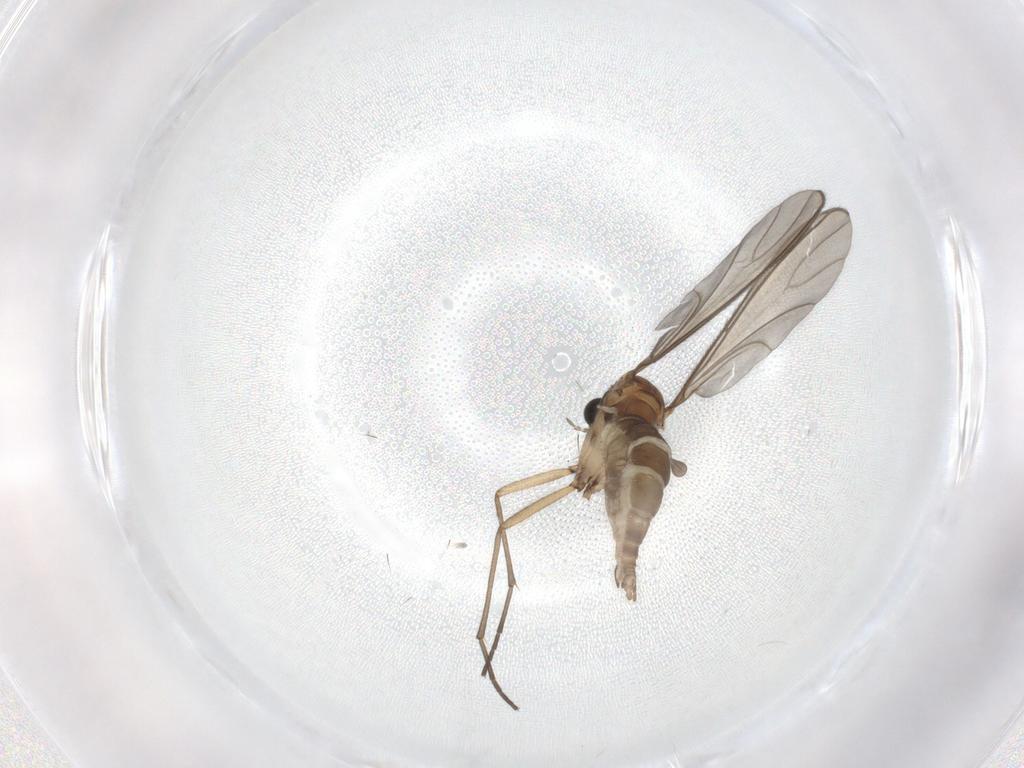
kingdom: Animalia
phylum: Arthropoda
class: Insecta
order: Diptera
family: Sciaridae
